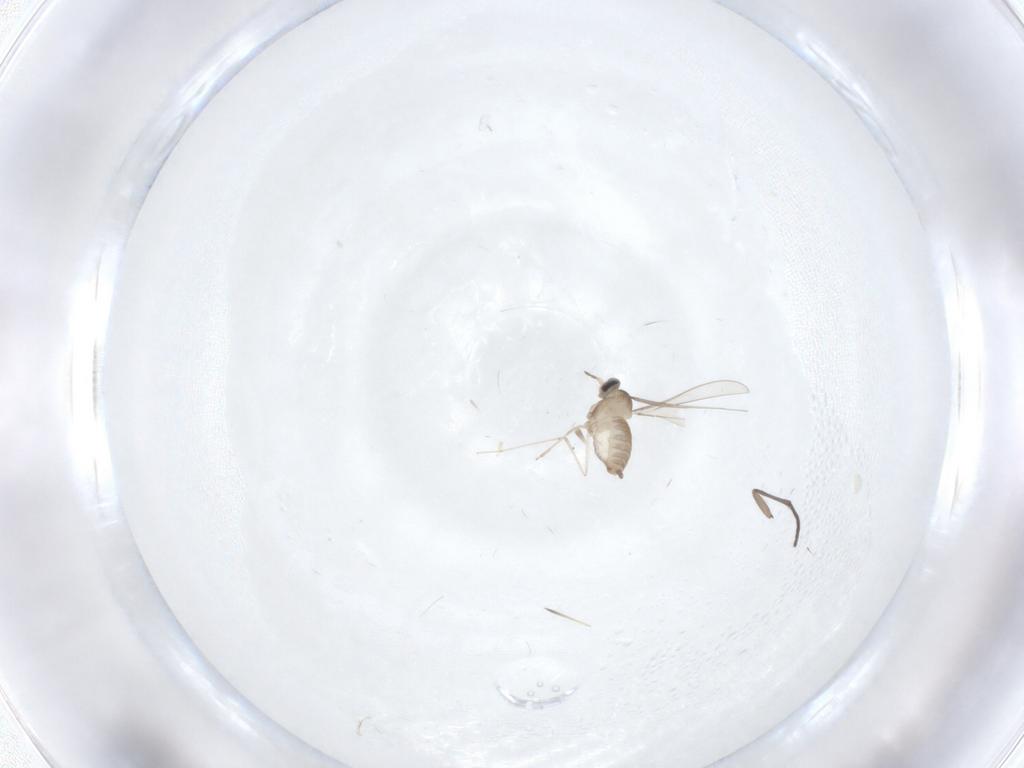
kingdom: Animalia
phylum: Arthropoda
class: Insecta
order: Diptera
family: Cecidomyiidae
